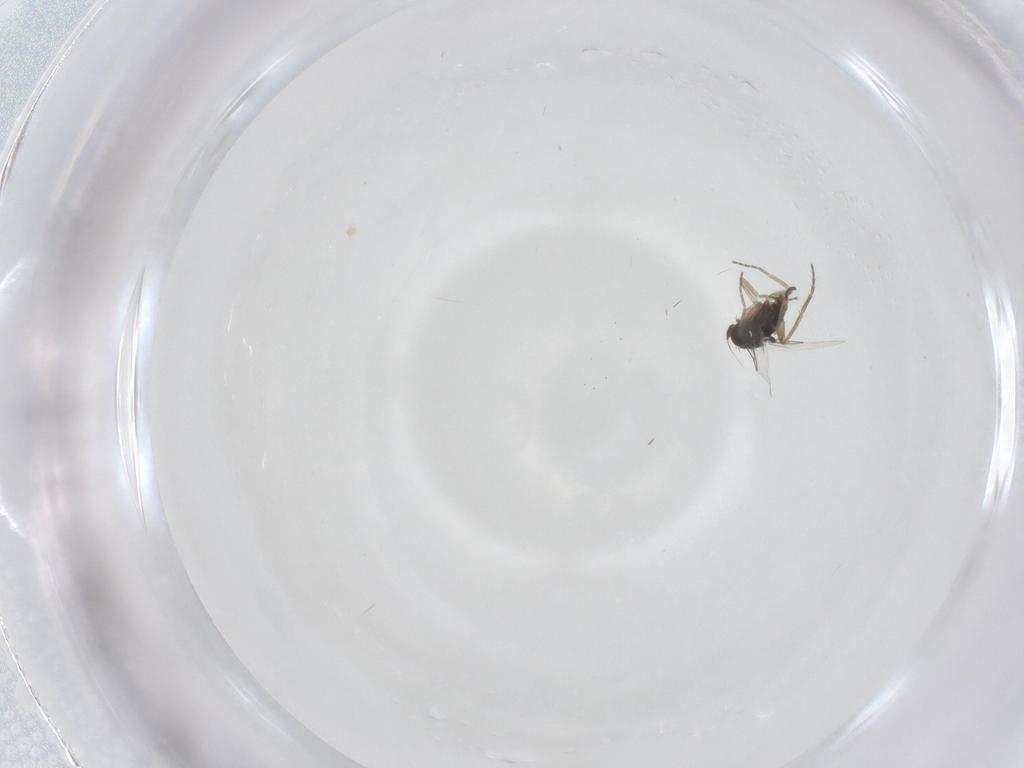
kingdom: Animalia
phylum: Arthropoda
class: Insecta
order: Diptera
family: Phoridae
